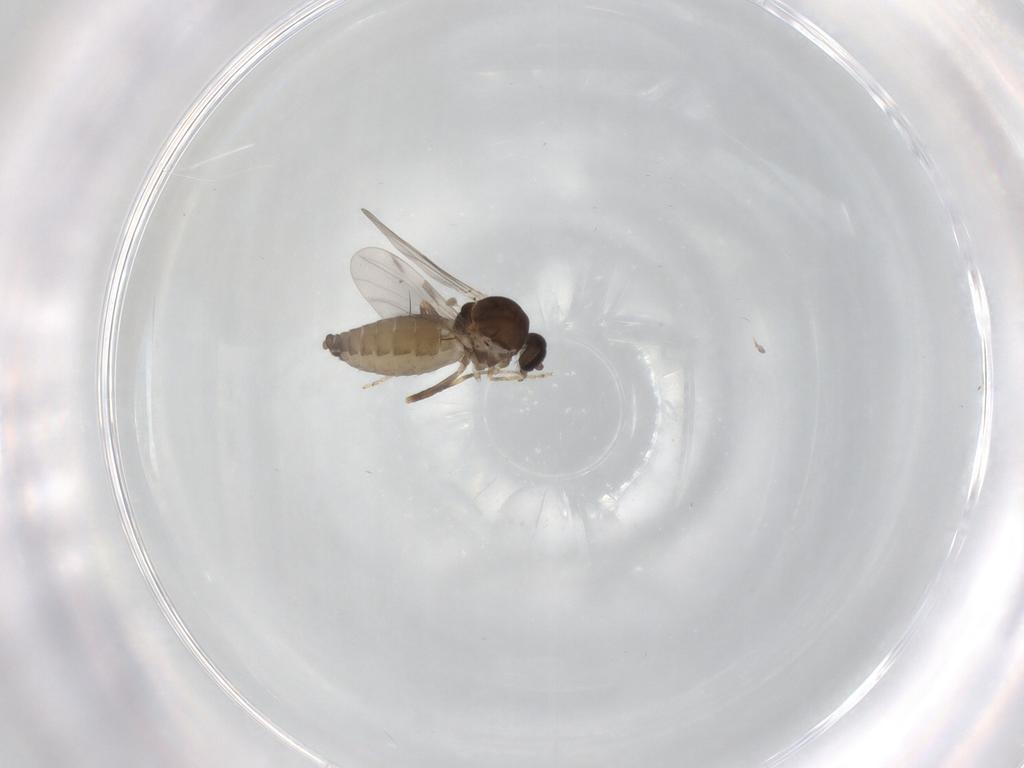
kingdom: Animalia
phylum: Arthropoda
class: Insecta
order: Diptera
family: Ceratopogonidae
